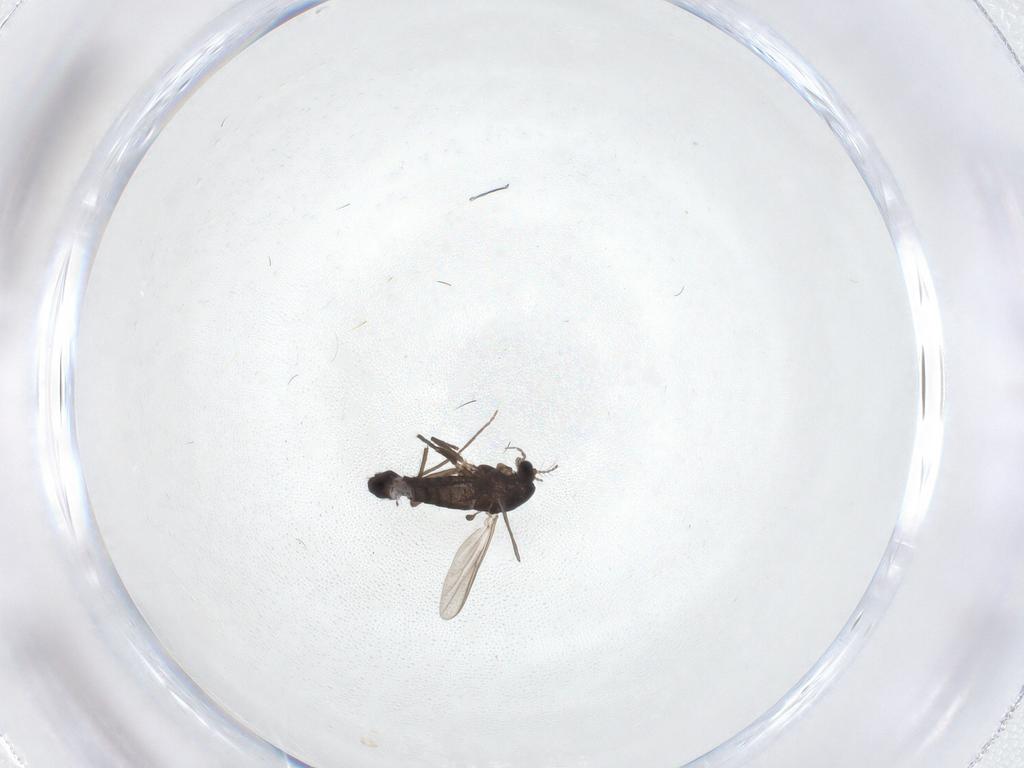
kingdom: Animalia
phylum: Arthropoda
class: Insecta
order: Diptera
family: Chironomidae
